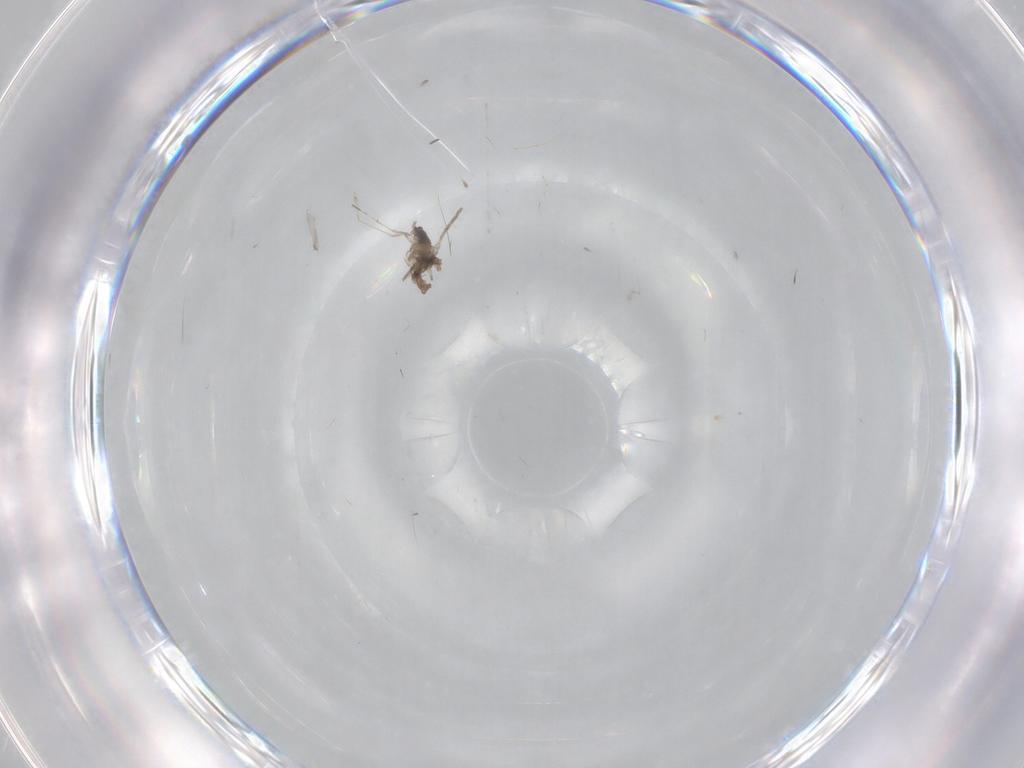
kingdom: Animalia
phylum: Arthropoda
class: Insecta
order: Diptera
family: Cecidomyiidae
